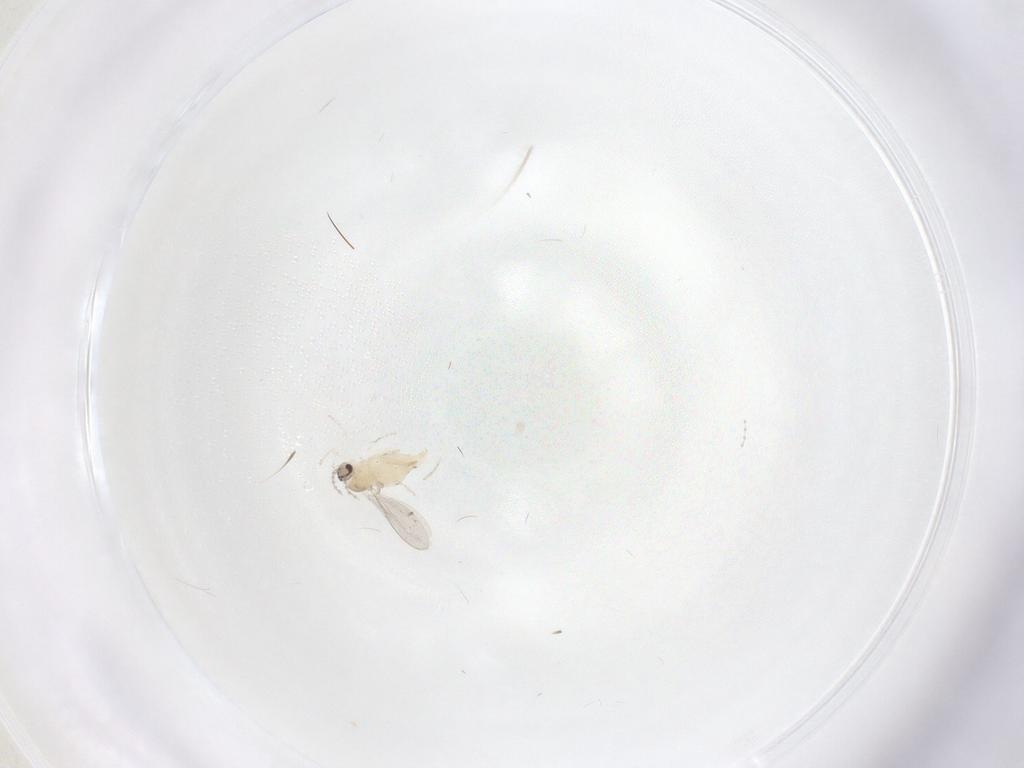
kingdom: Animalia
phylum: Arthropoda
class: Insecta
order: Diptera
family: Cecidomyiidae
